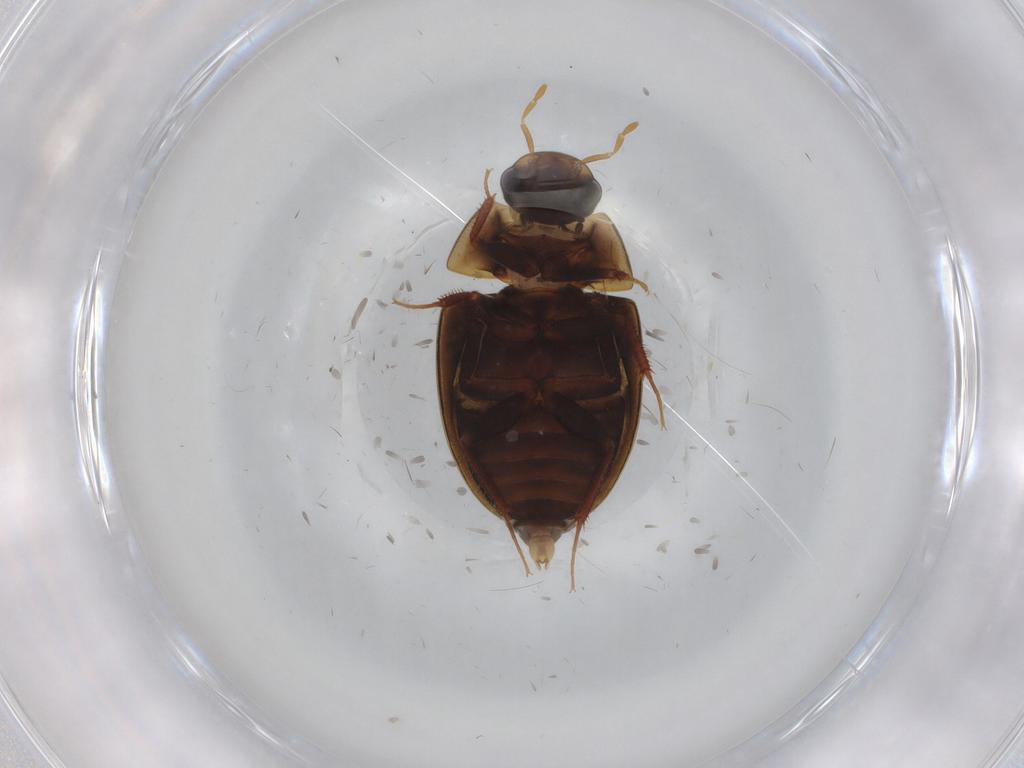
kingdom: Animalia
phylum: Arthropoda
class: Insecta
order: Coleoptera
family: Hydrophilidae
